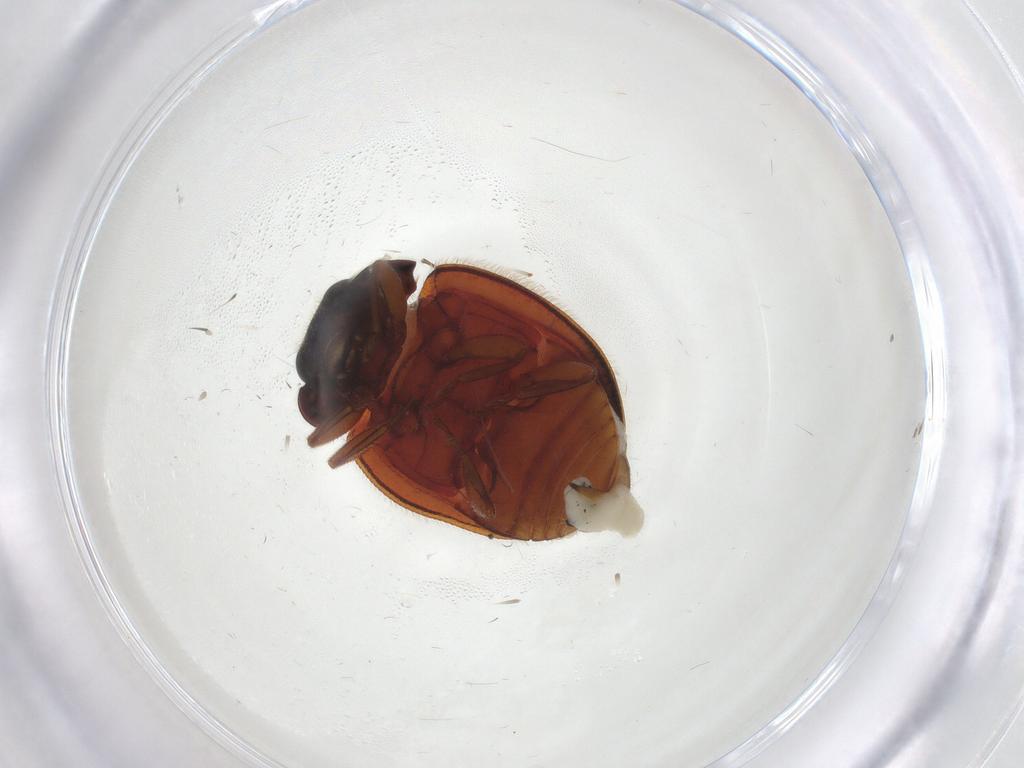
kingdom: Animalia
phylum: Arthropoda
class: Insecta
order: Coleoptera
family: Coccinellidae
